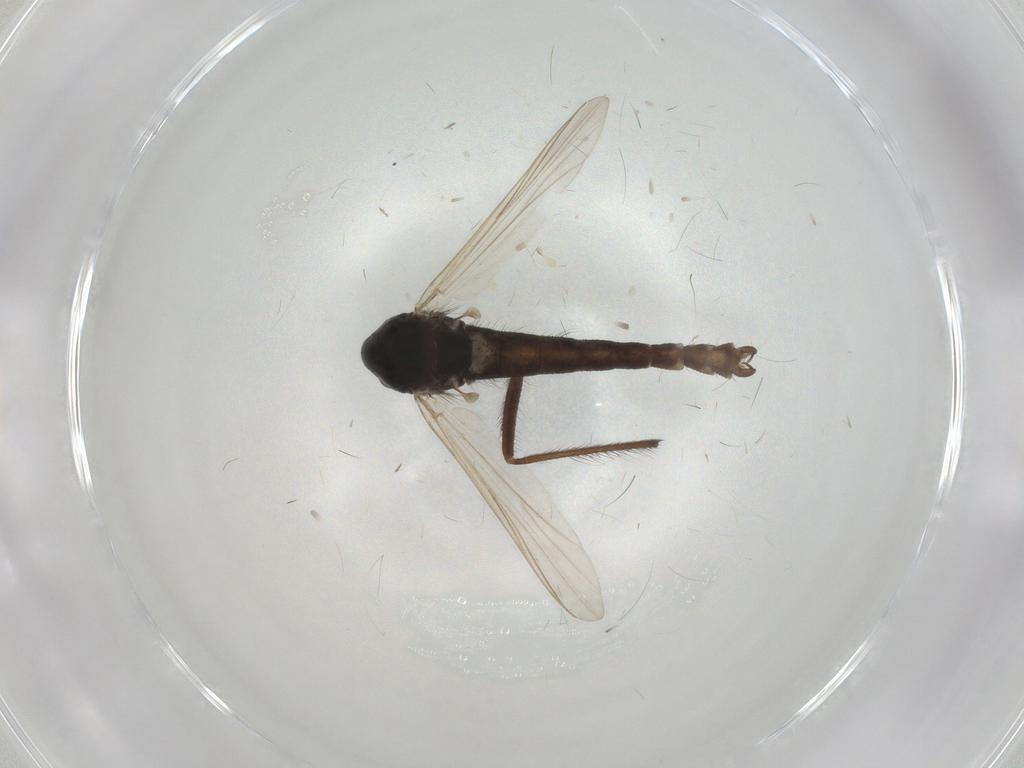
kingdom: Animalia
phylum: Arthropoda
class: Insecta
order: Diptera
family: Chironomidae
